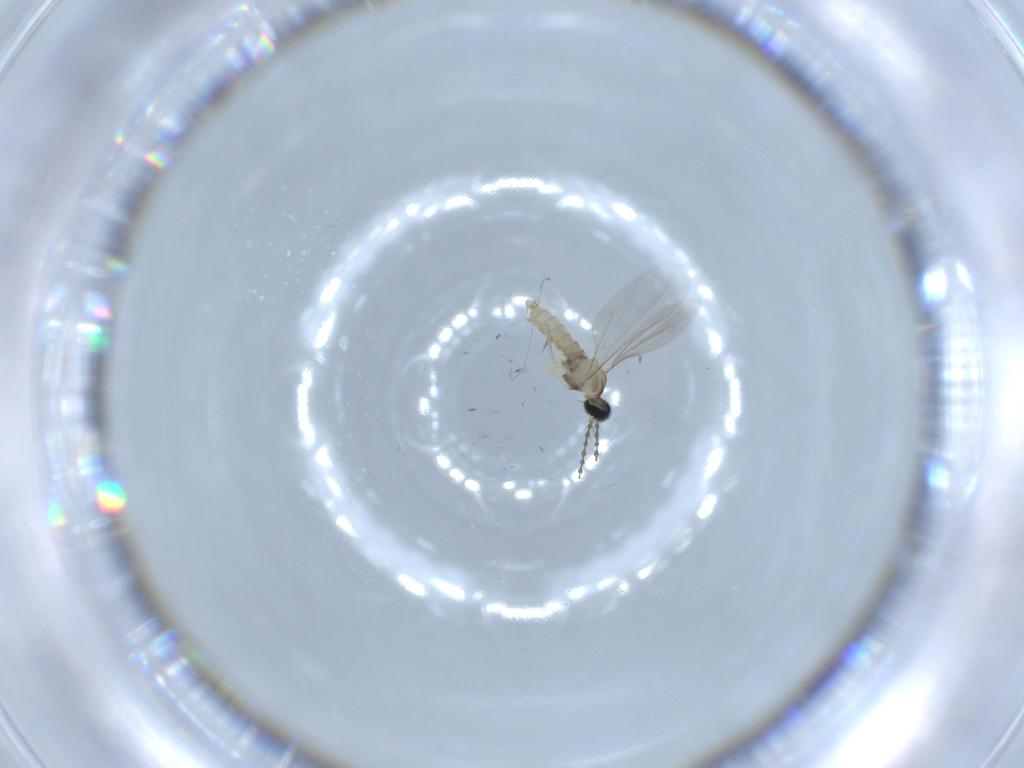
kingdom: Animalia
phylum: Arthropoda
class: Insecta
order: Diptera
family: Cecidomyiidae
